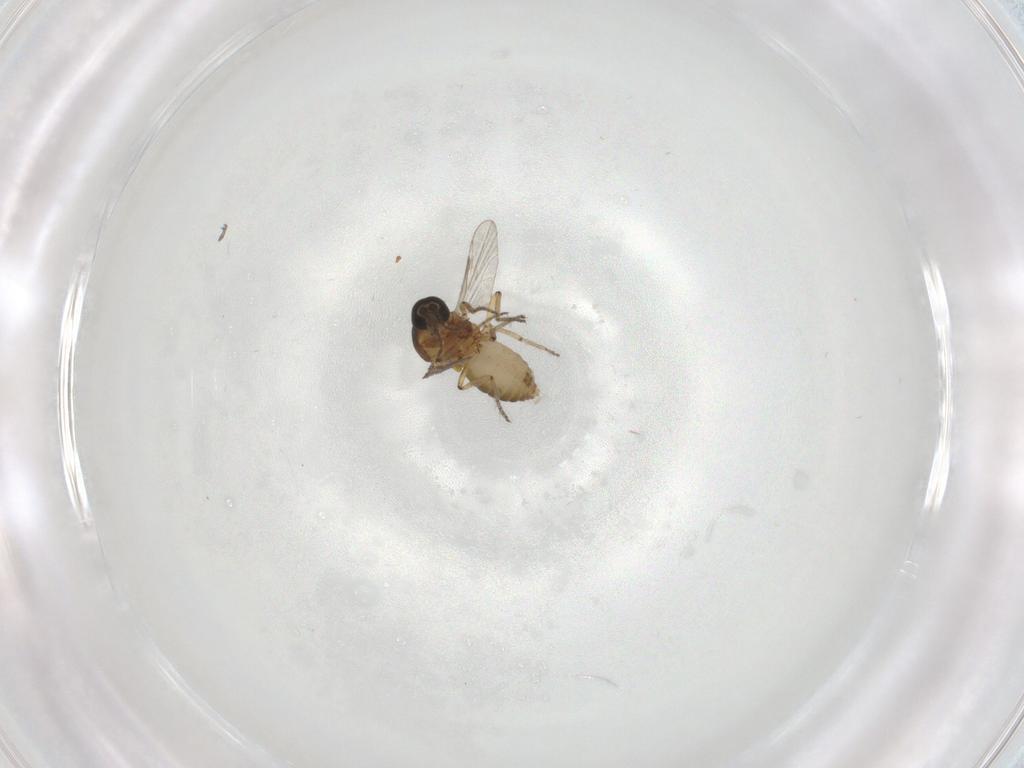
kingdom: Animalia
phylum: Arthropoda
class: Insecta
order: Diptera
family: Ceratopogonidae
